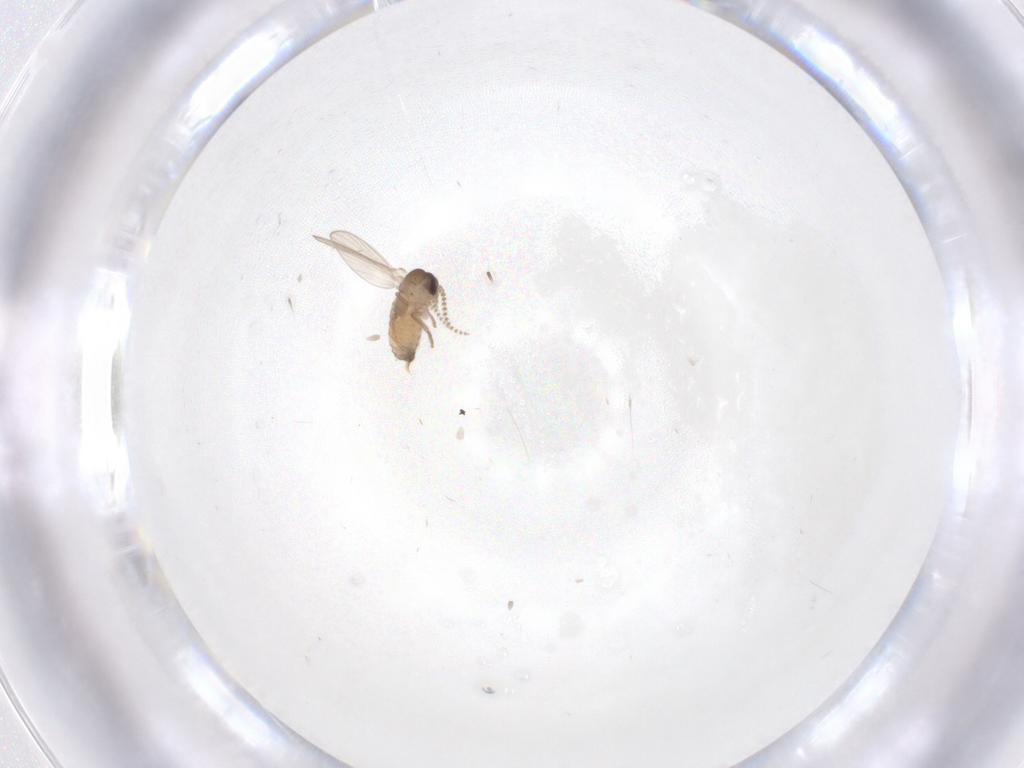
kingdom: Animalia
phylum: Arthropoda
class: Insecta
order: Diptera
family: Psychodidae
